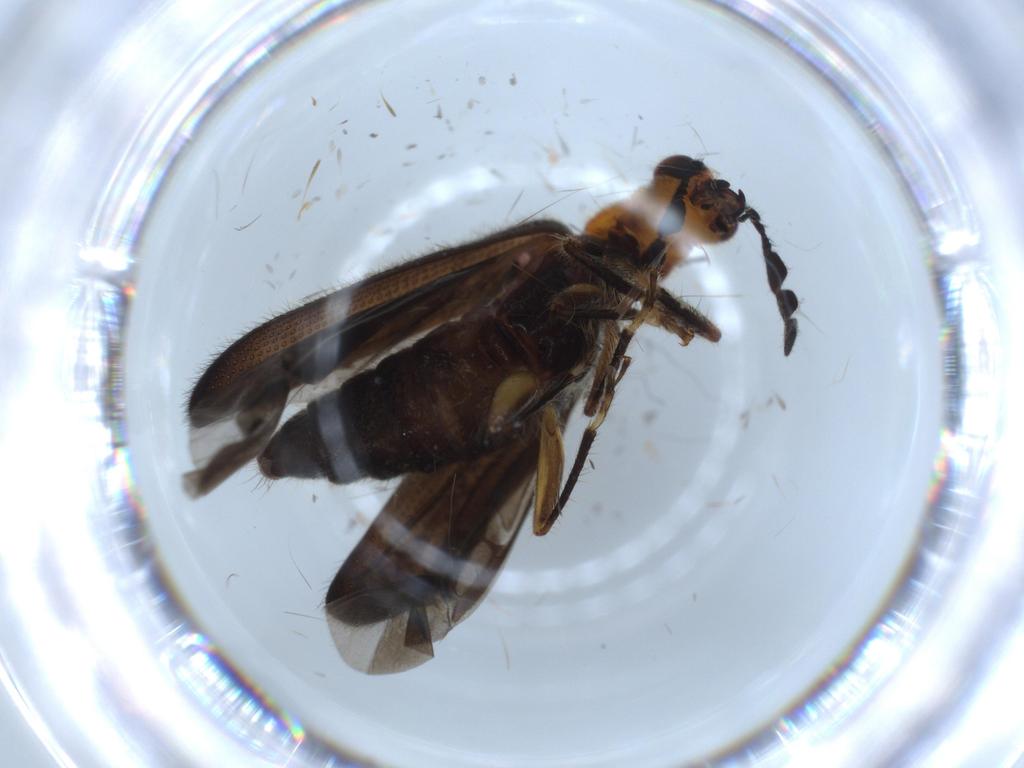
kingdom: Animalia
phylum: Arthropoda
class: Insecta
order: Coleoptera
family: Cleridae
